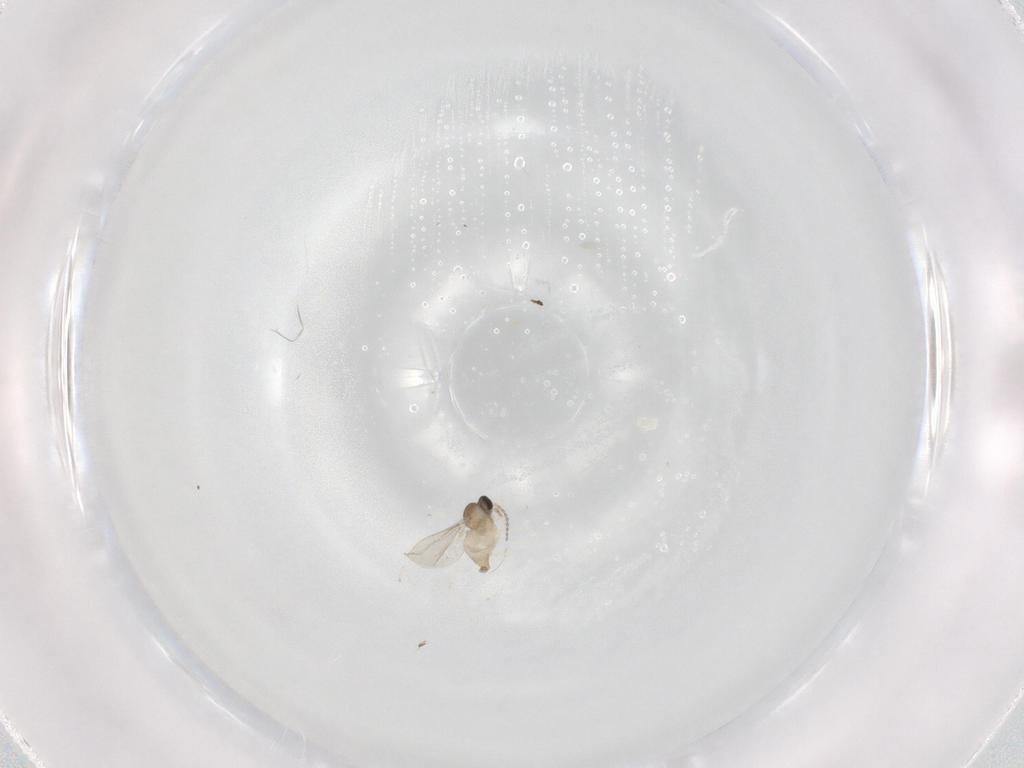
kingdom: Animalia
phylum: Arthropoda
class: Insecta
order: Diptera
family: Cecidomyiidae
